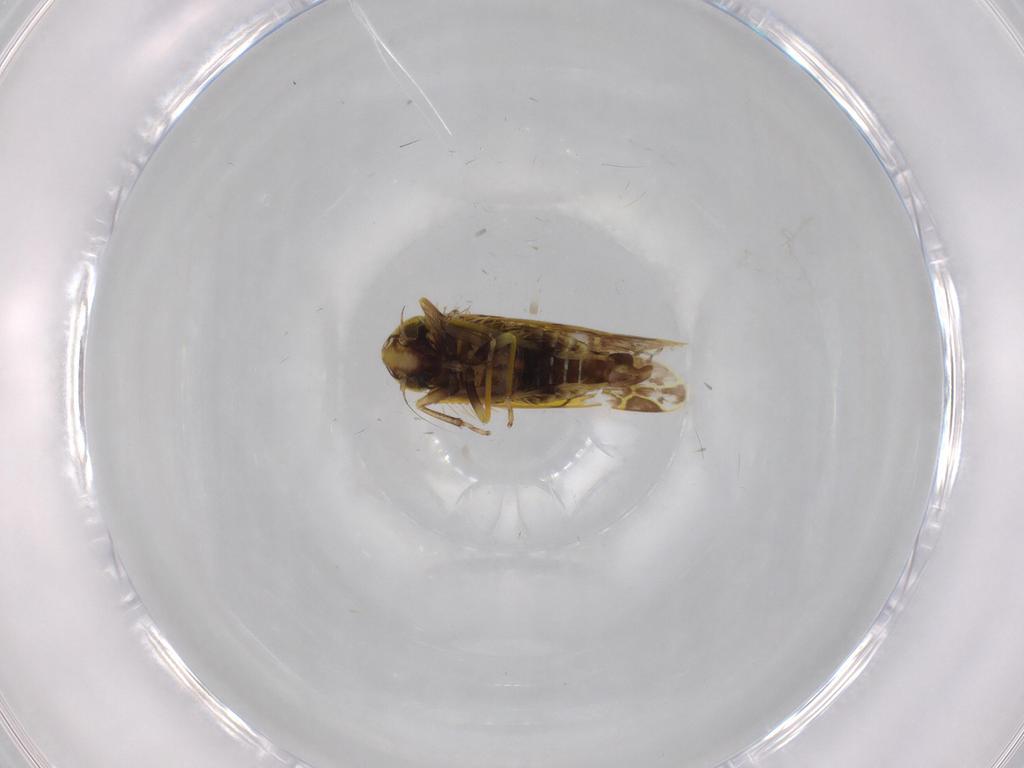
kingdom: Animalia
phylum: Arthropoda
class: Insecta
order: Hemiptera
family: Cicadellidae
